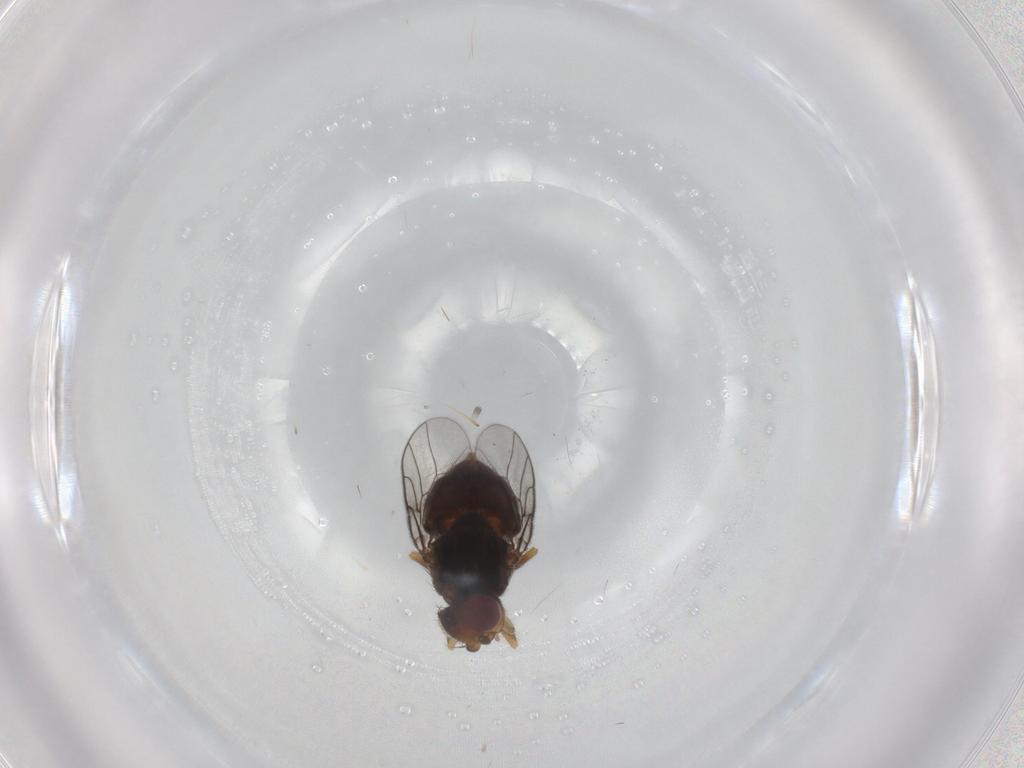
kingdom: Animalia
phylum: Arthropoda
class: Insecta
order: Diptera
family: Chloropidae
